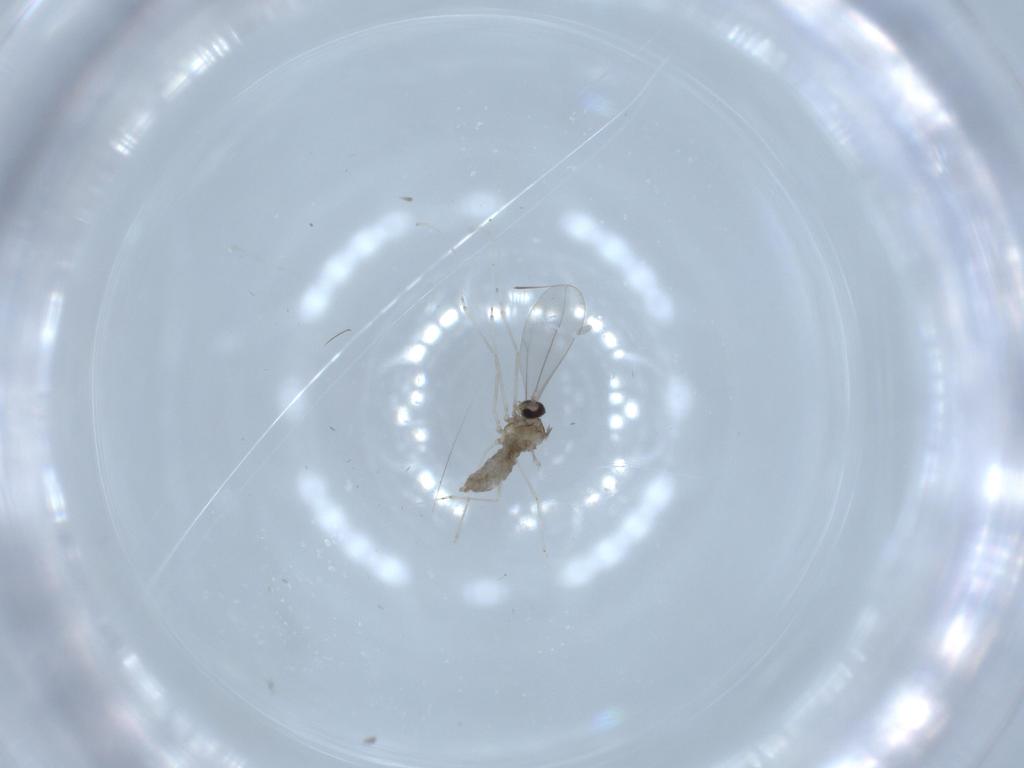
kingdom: Animalia
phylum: Arthropoda
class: Insecta
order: Diptera
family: Cecidomyiidae
